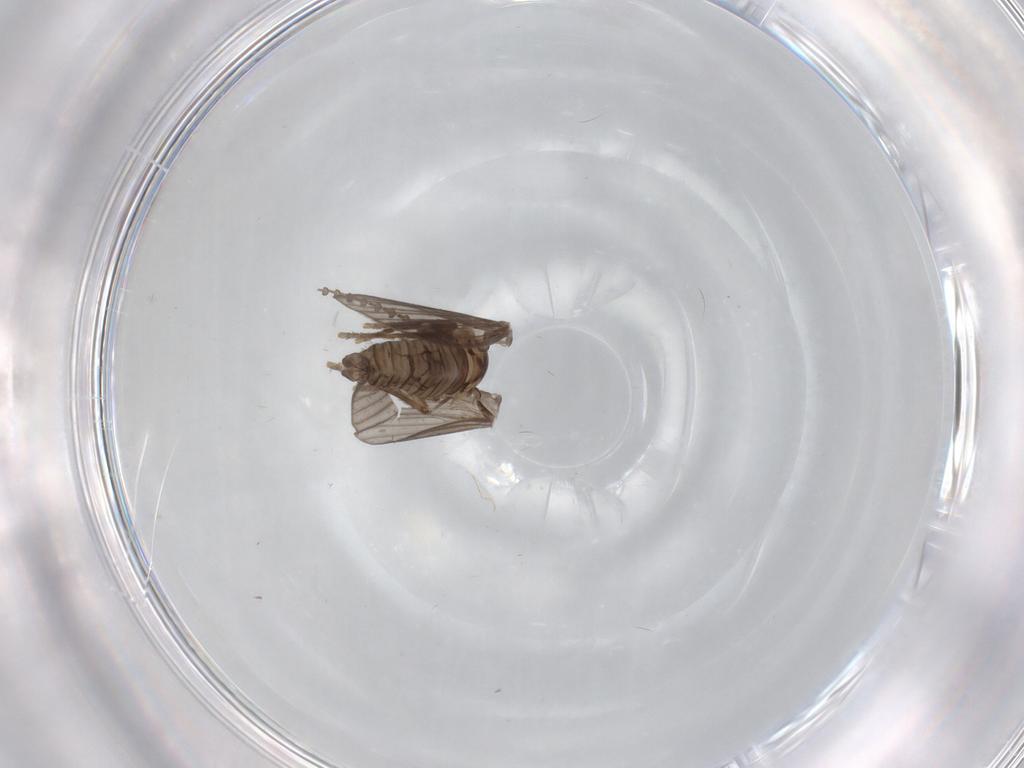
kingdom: Animalia
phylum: Arthropoda
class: Insecta
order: Diptera
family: Psychodidae
